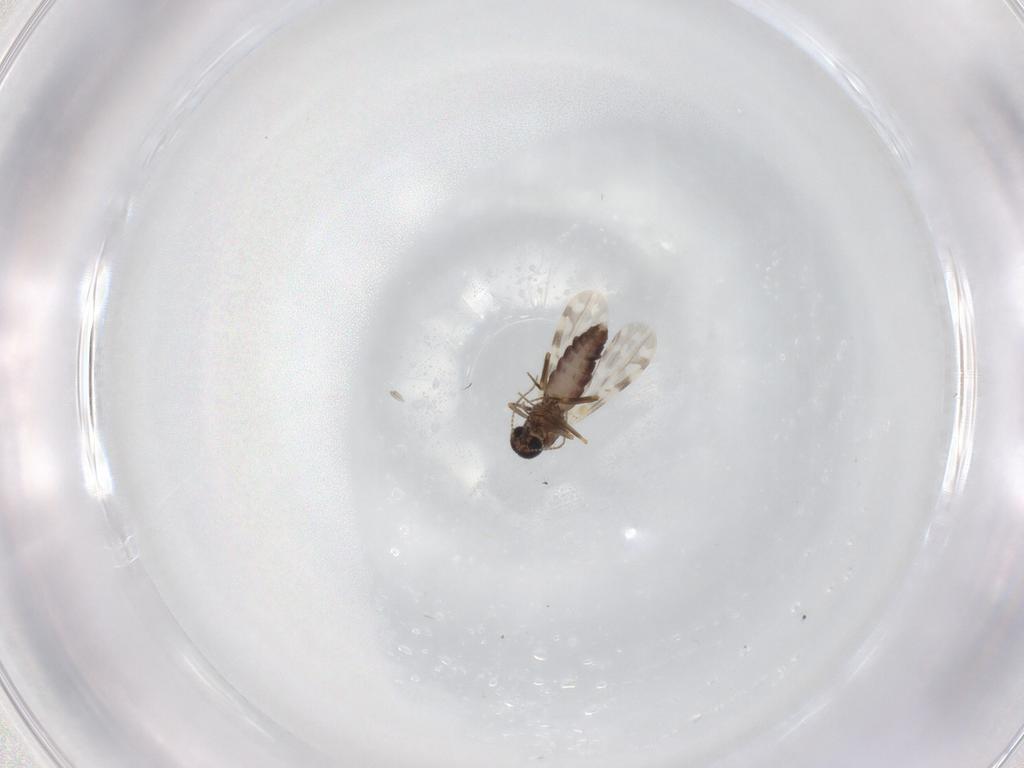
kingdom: Animalia
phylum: Arthropoda
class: Insecta
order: Diptera
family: Ceratopogonidae
